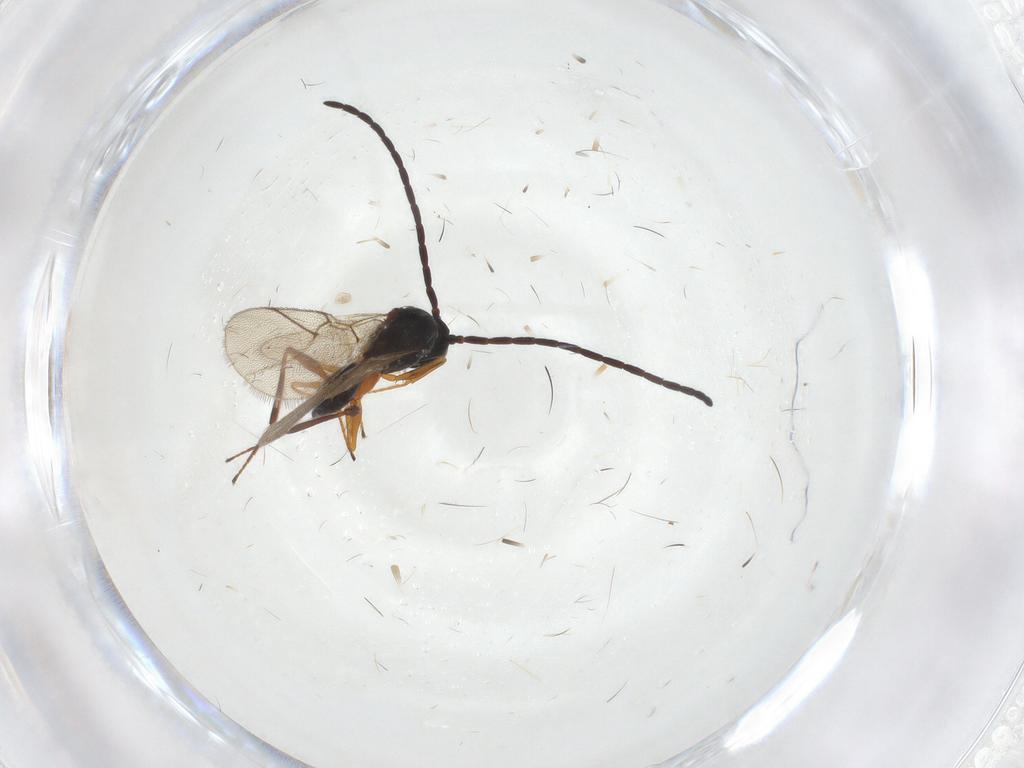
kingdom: Animalia
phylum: Arthropoda
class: Insecta
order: Hymenoptera
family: Figitidae
